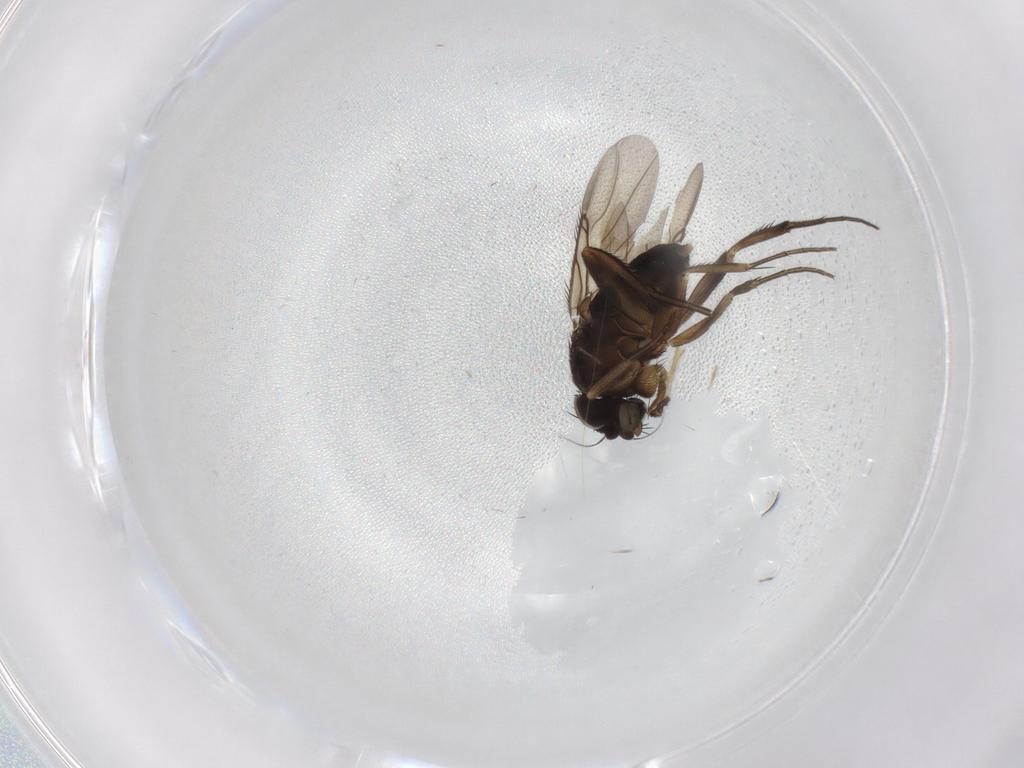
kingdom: Animalia
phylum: Arthropoda
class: Insecta
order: Diptera
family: Phoridae
